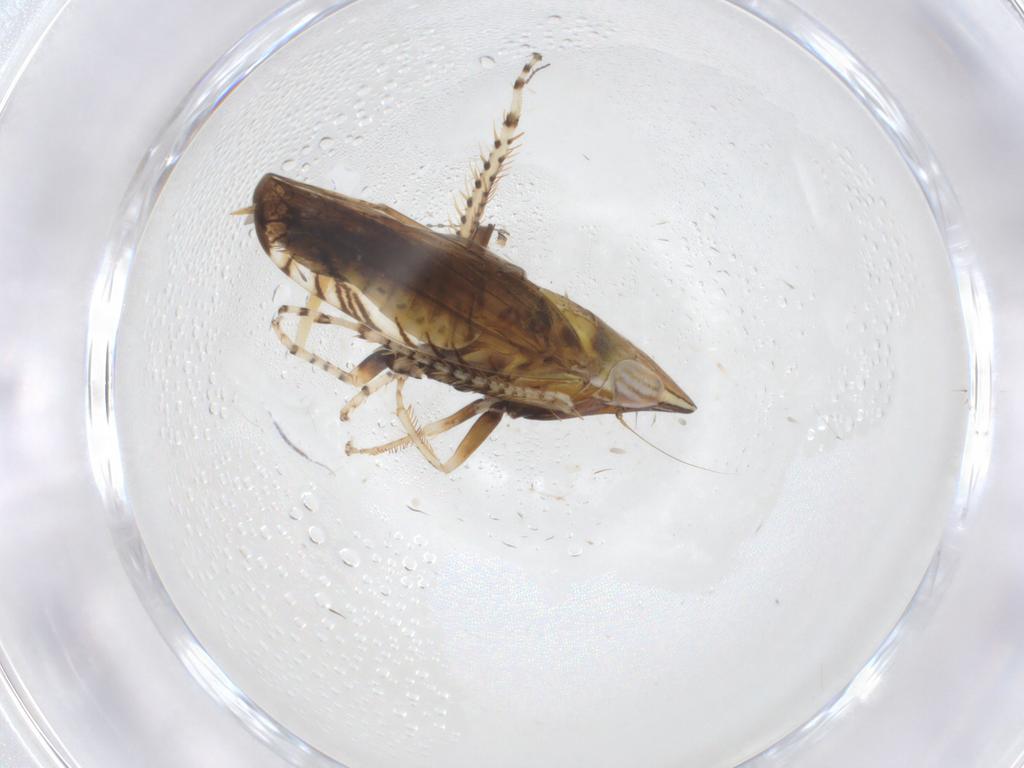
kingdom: Animalia
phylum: Arthropoda
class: Insecta
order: Hemiptera
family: Cicadellidae
